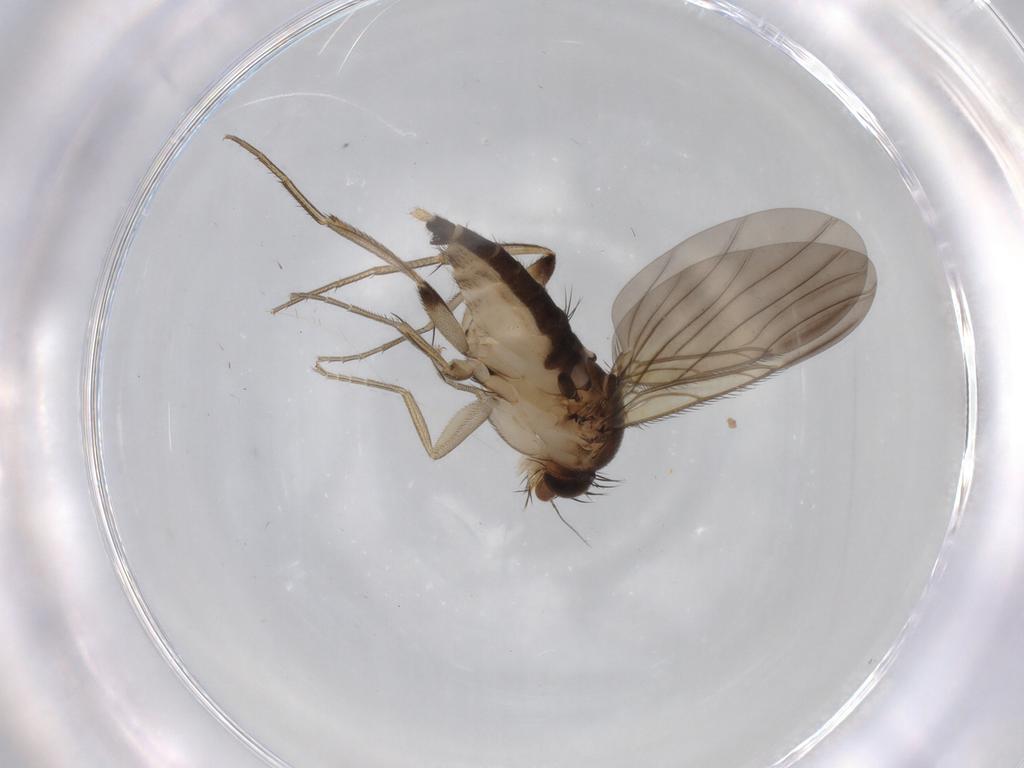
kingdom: Animalia
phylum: Arthropoda
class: Insecta
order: Diptera
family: Phoridae
